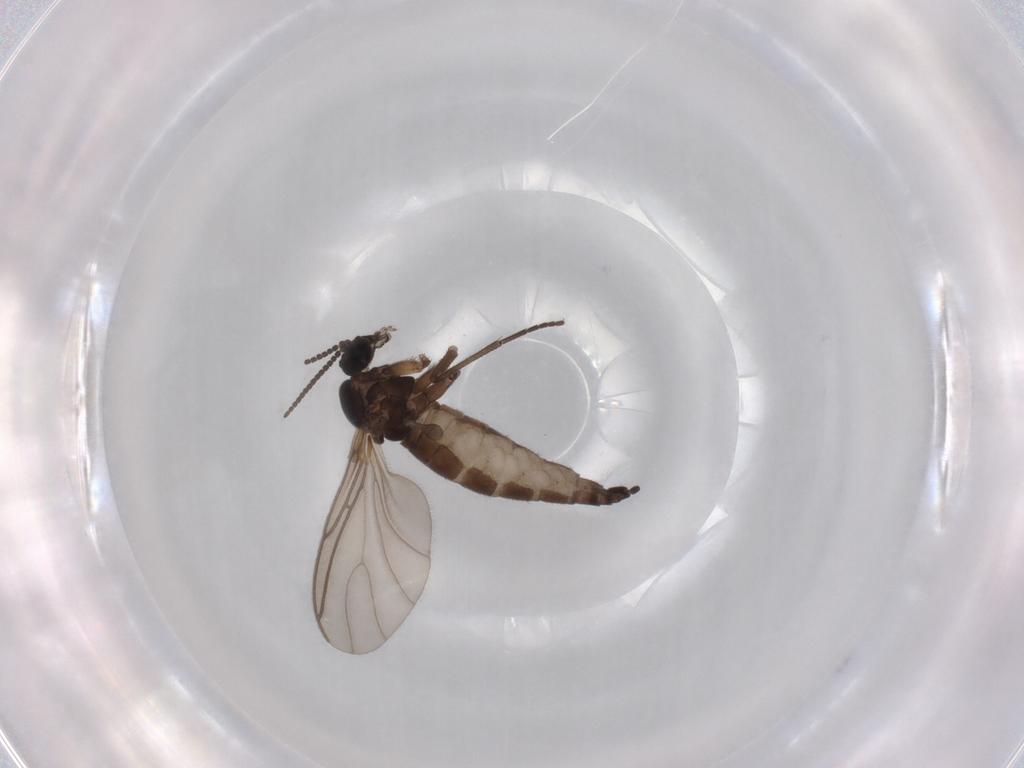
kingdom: Animalia
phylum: Arthropoda
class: Insecta
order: Diptera
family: Sciaridae
